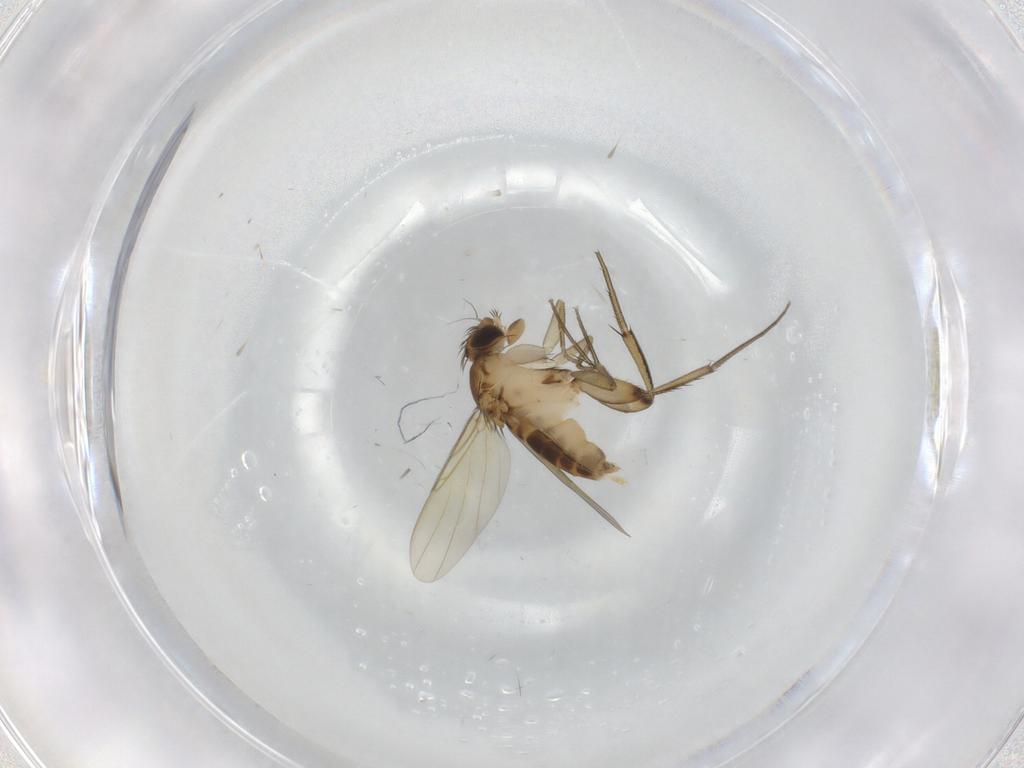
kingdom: Animalia
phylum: Arthropoda
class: Insecta
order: Diptera
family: Phoridae
